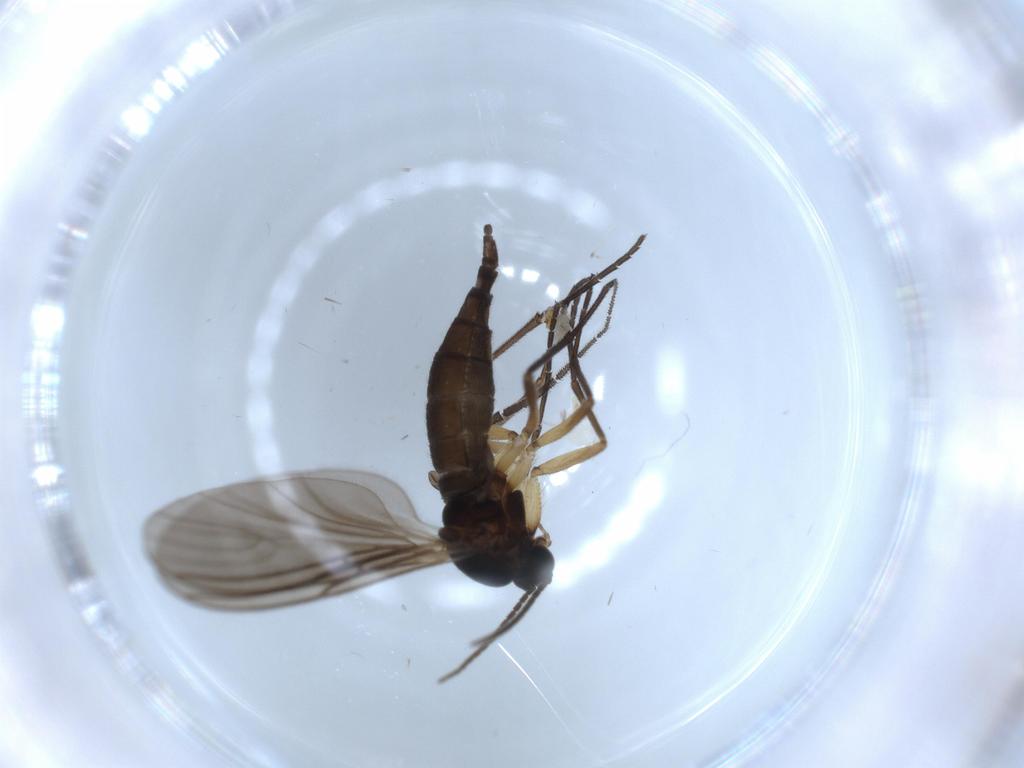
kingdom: Animalia
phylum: Arthropoda
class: Insecta
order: Diptera
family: Sciaridae
